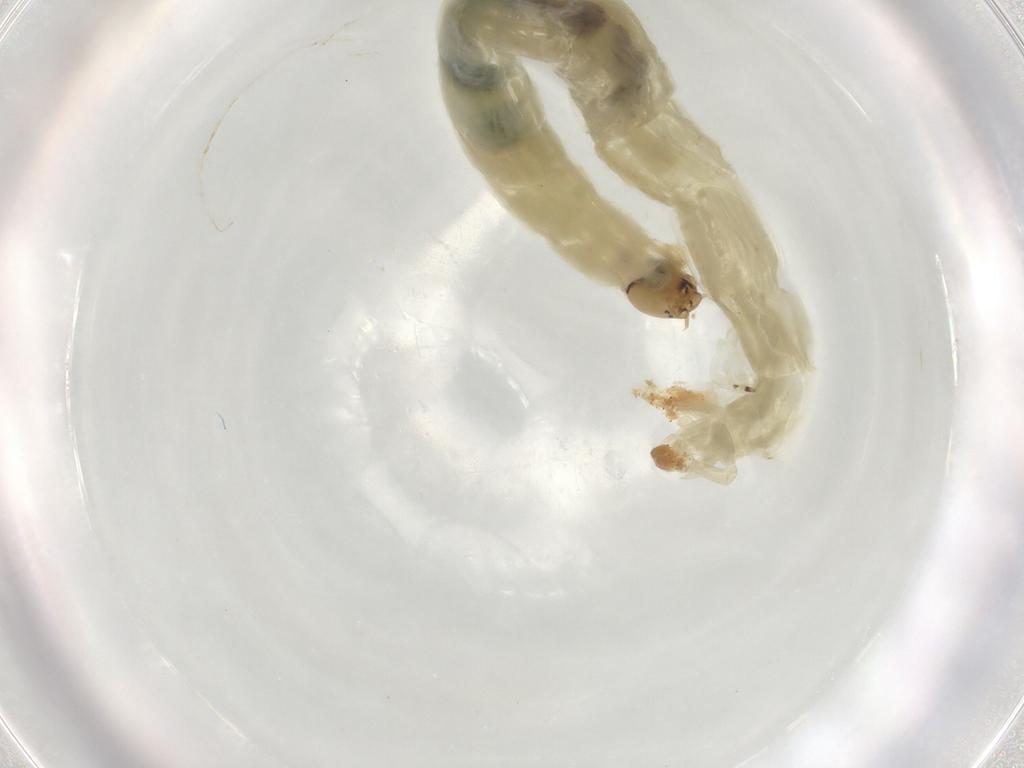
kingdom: Animalia
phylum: Arthropoda
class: Insecta
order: Diptera
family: Chironomidae
